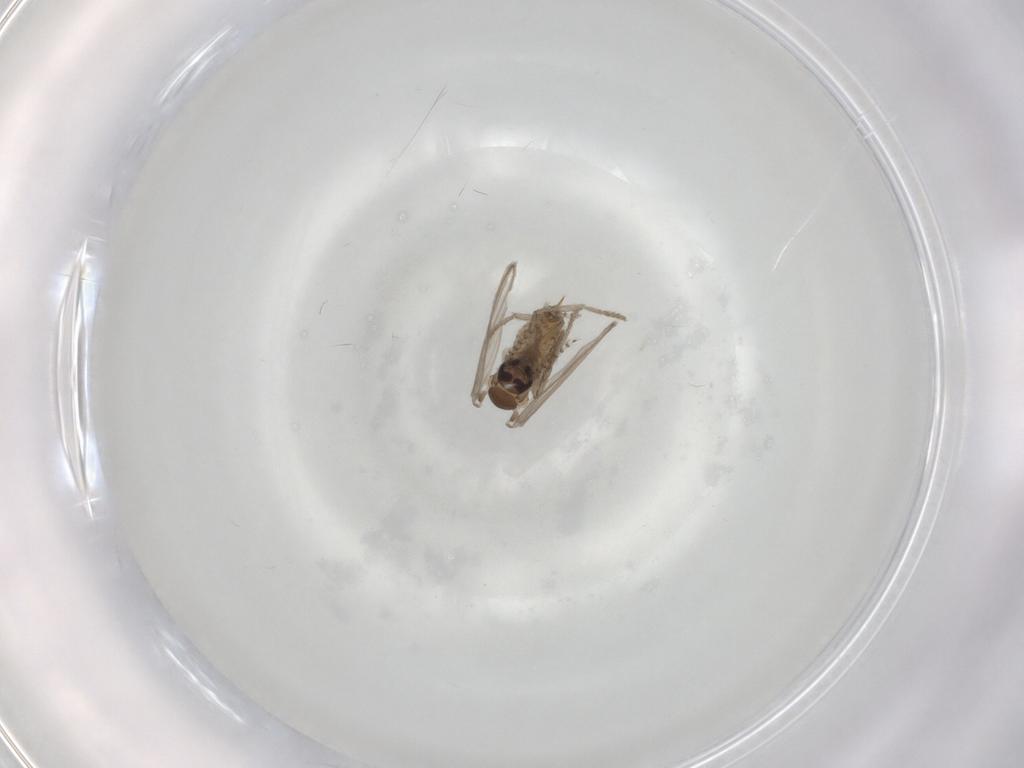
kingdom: Animalia
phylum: Arthropoda
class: Insecta
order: Diptera
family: Psychodidae
